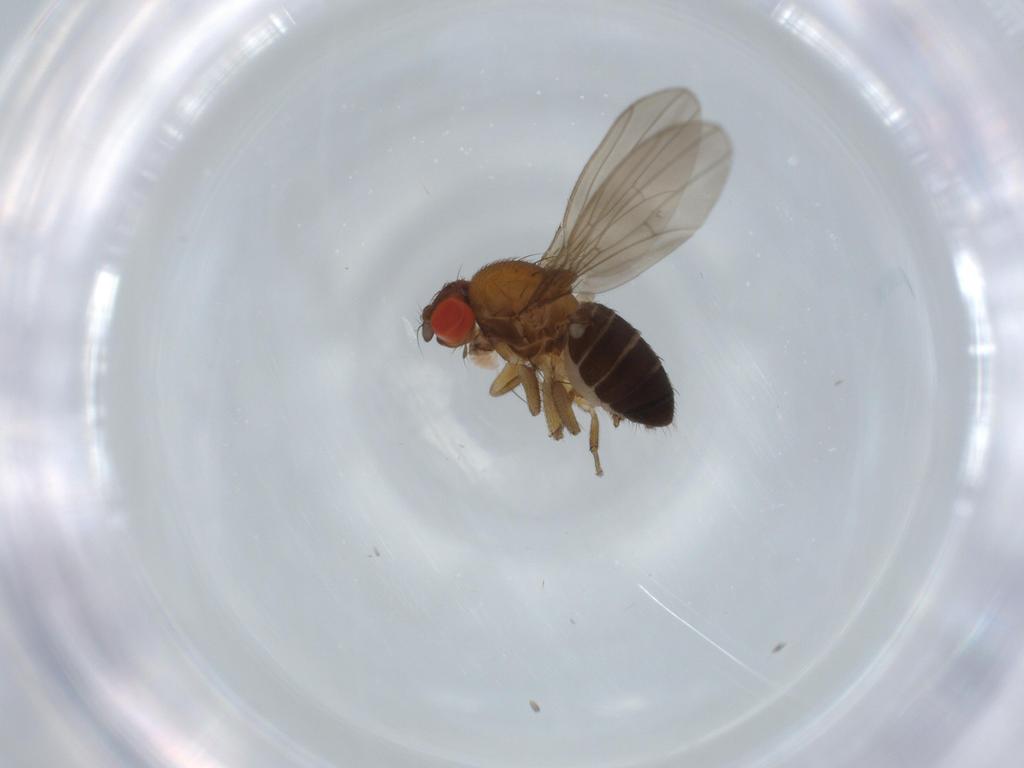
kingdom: Animalia
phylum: Arthropoda
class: Insecta
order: Diptera
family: Drosophilidae
